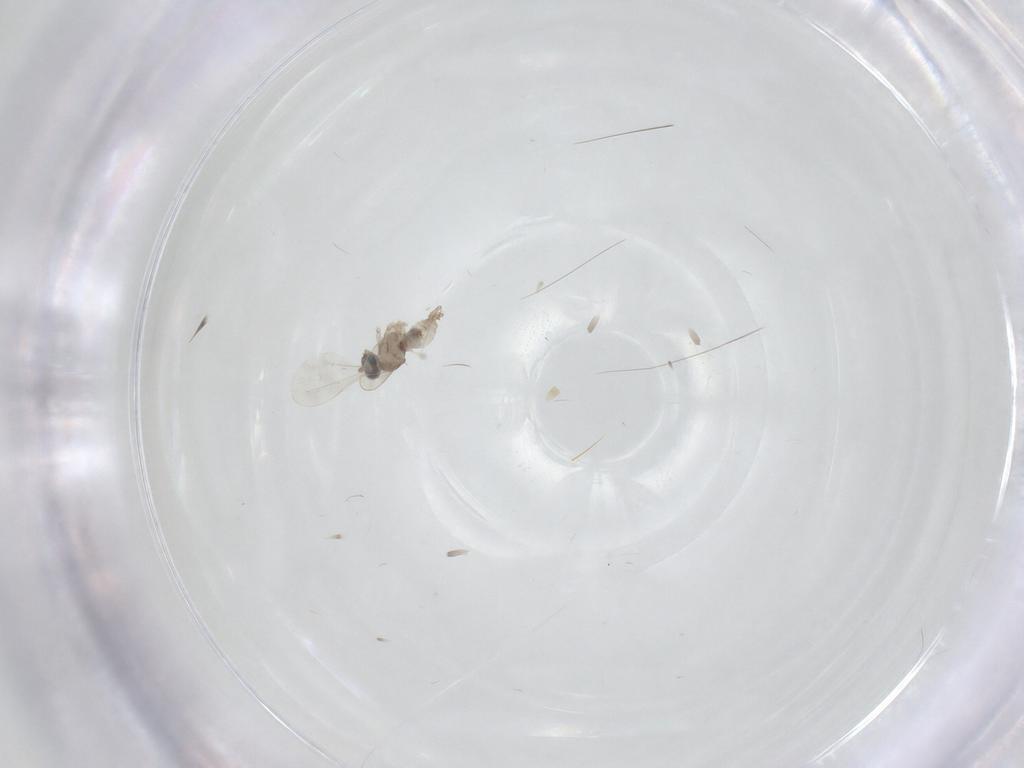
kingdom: Animalia
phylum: Arthropoda
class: Insecta
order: Diptera
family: Cecidomyiidae
